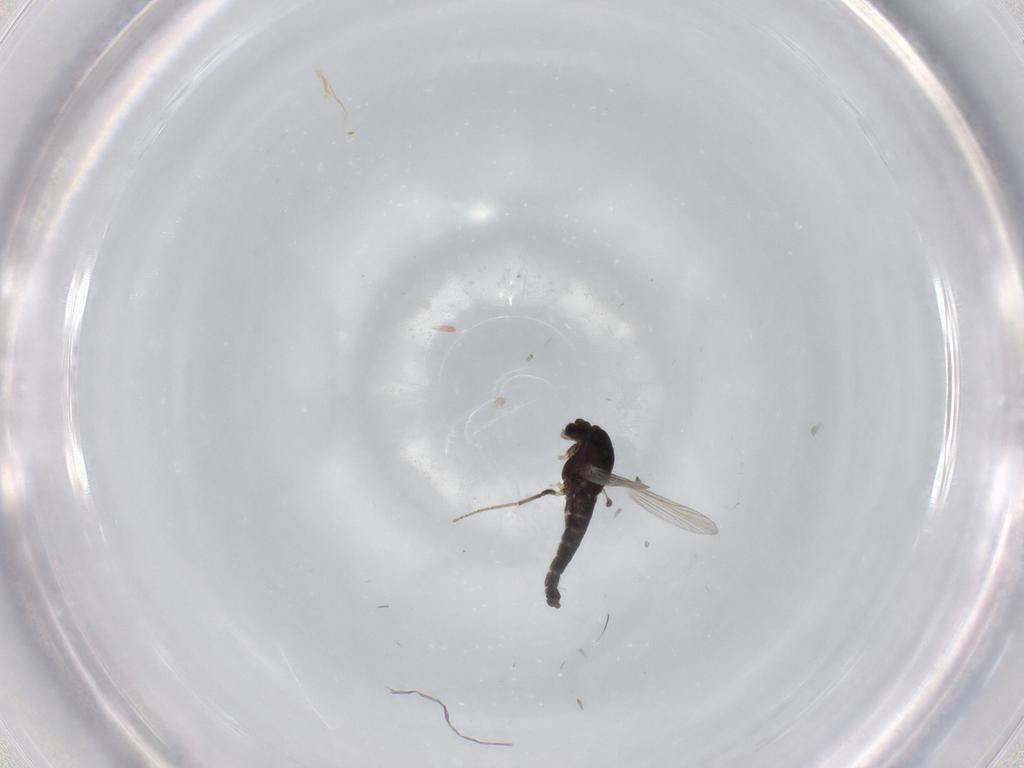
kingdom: Animalia
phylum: Arthropoda
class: Insecta
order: Diptera
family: Chironomidae
